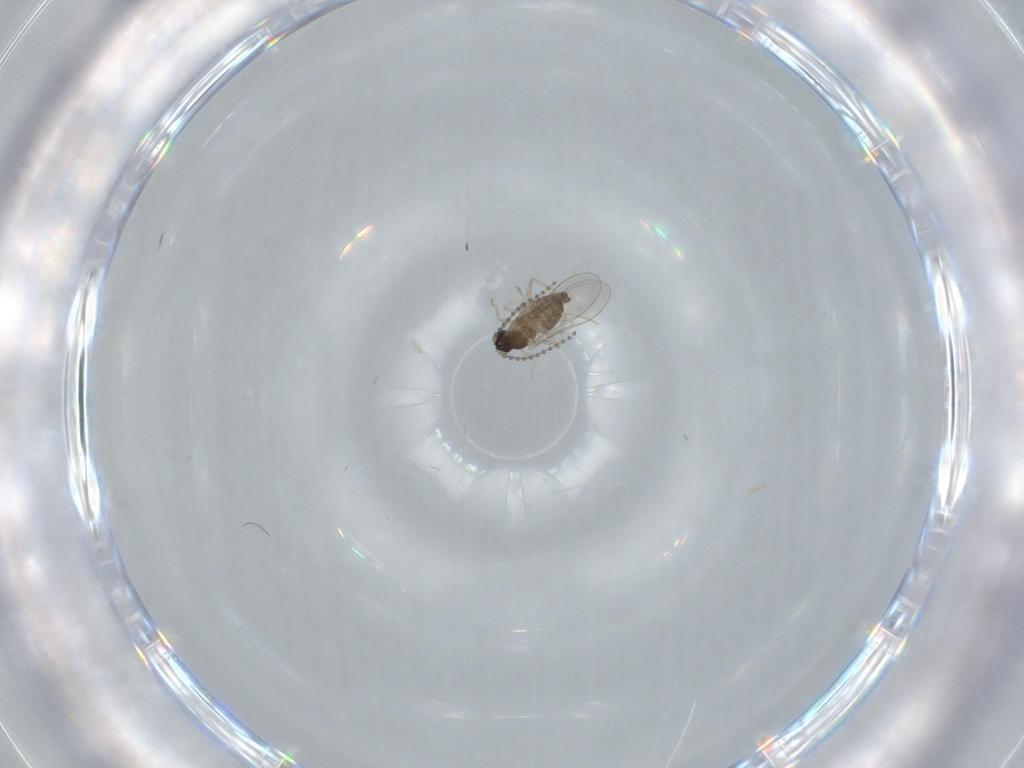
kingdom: Animalia
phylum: Arthropoda
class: Insecta
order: Diptera
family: Cecidomyiidae
